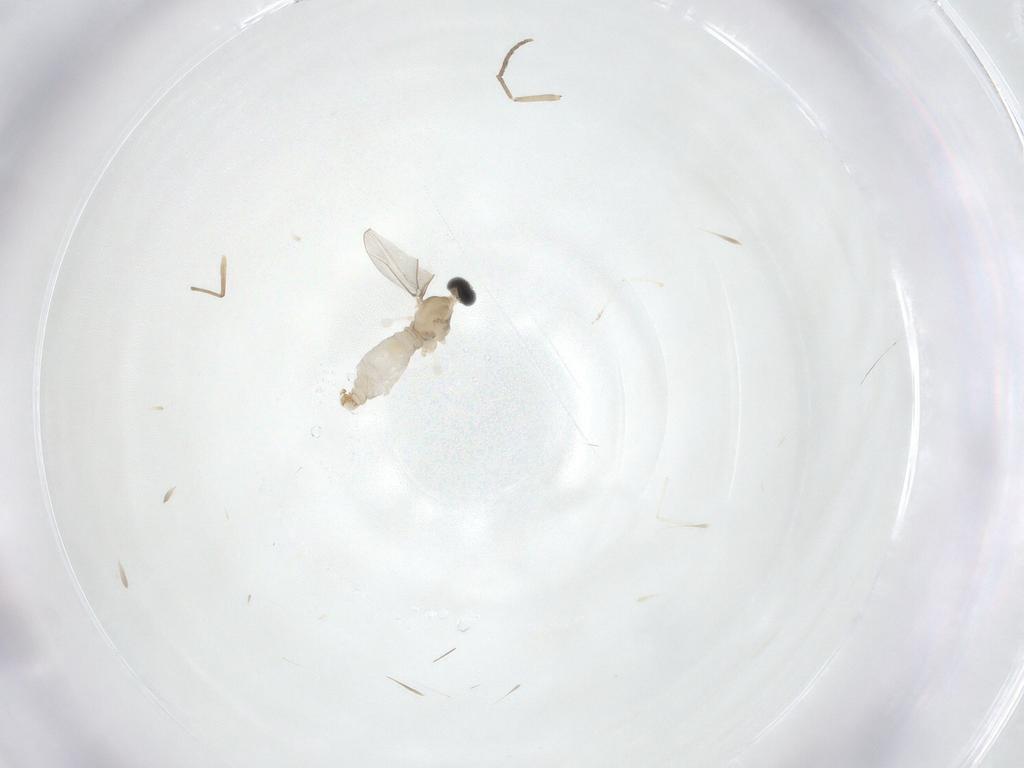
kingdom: Animalia
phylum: Arthropoda
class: Insecta
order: Diptera
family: Cecidomyiidae
